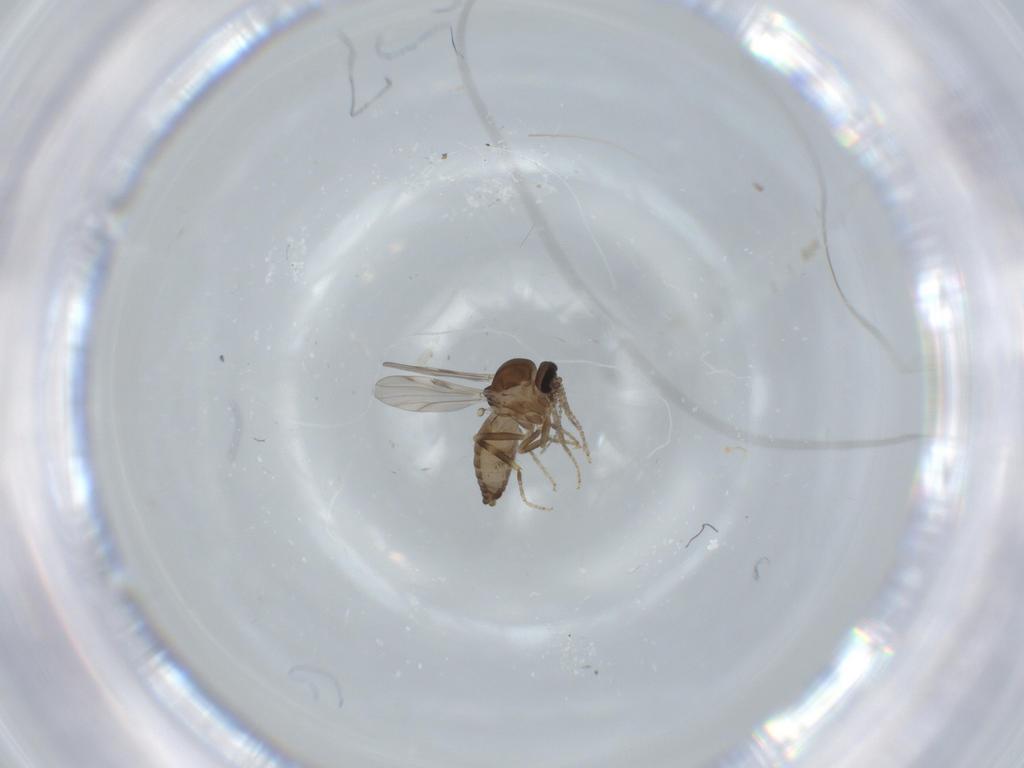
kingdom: Animalia
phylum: Arthropoda
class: Insecta
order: Diptera
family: Ceratopogonidae
